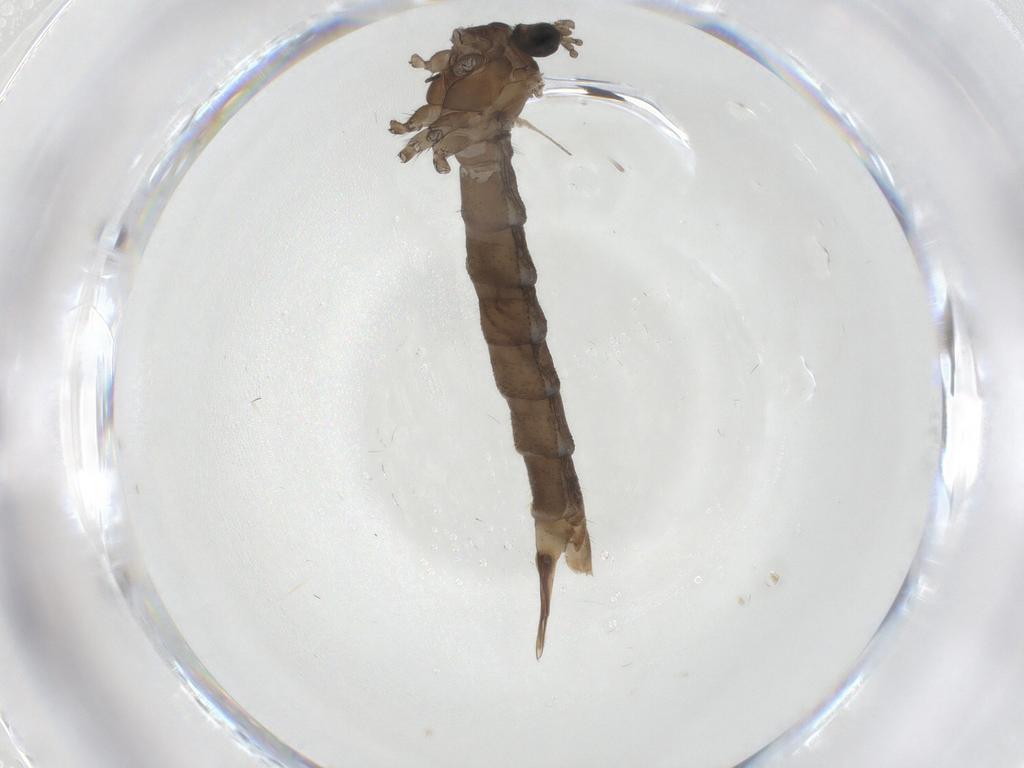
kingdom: Animalia
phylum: Arthropoda
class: Insecta
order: Diptera
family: Limoniidae
